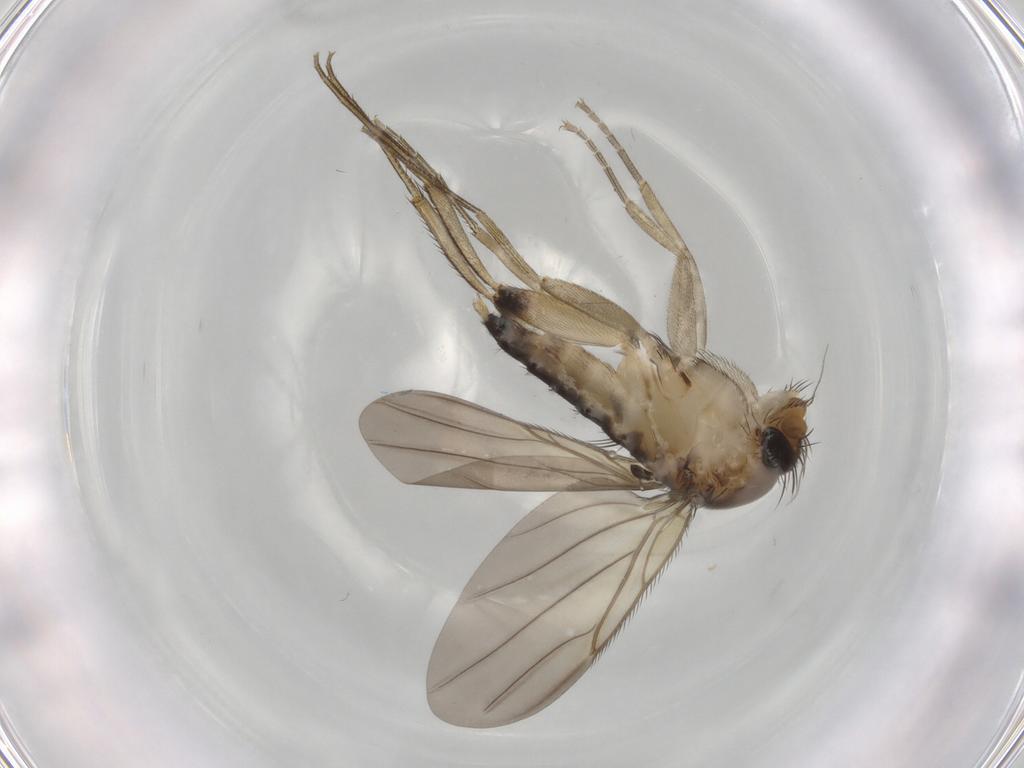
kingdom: Animalia
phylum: Arthropoda
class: Insecta
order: Diptera
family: Phoridae
